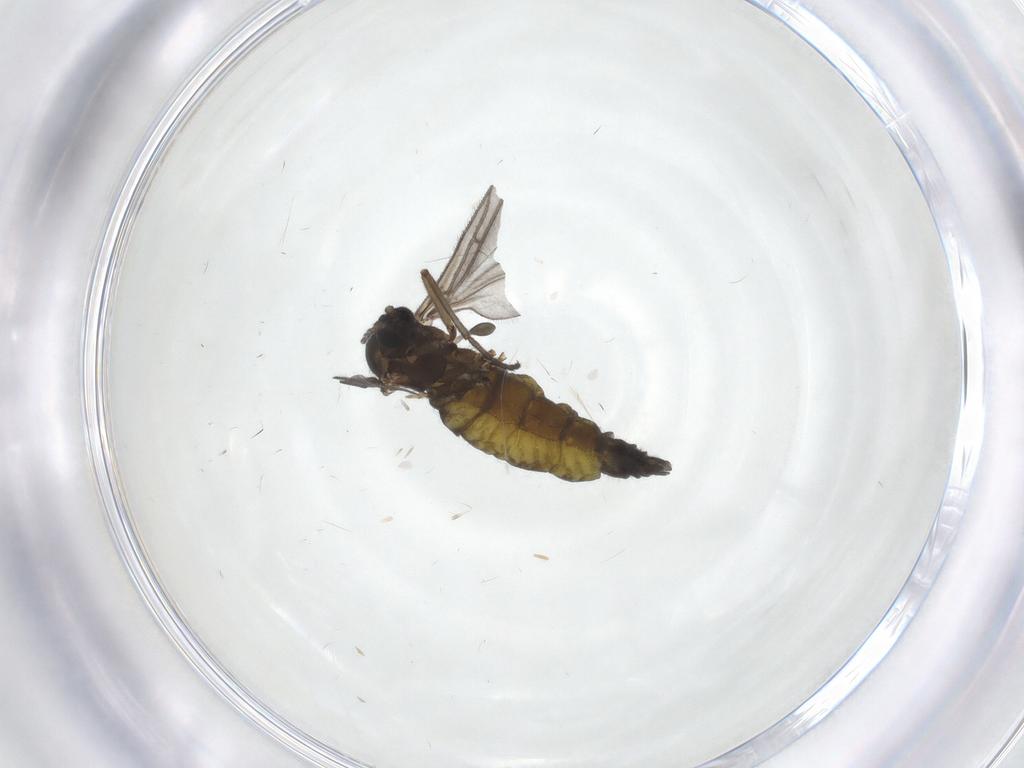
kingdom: Animalia
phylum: Arthropoda
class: Insecta
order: Diptera
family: Sciaridae
